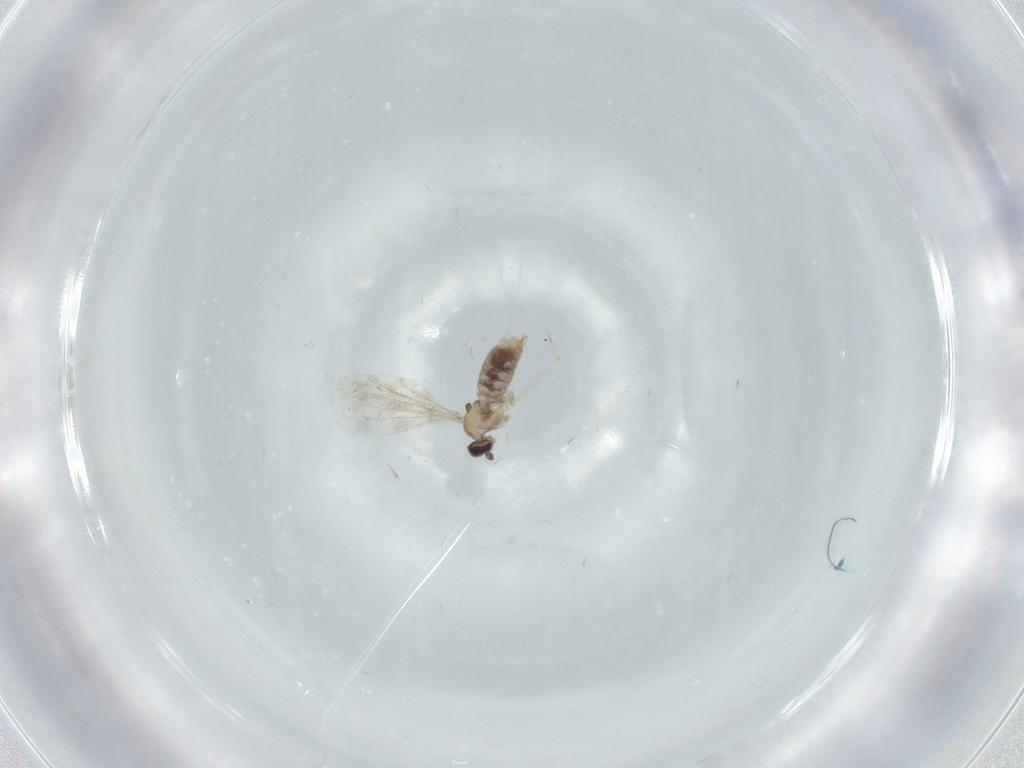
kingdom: Animalia
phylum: Arthropoda
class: Insecta
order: Diptera
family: Cecidomyiidae
